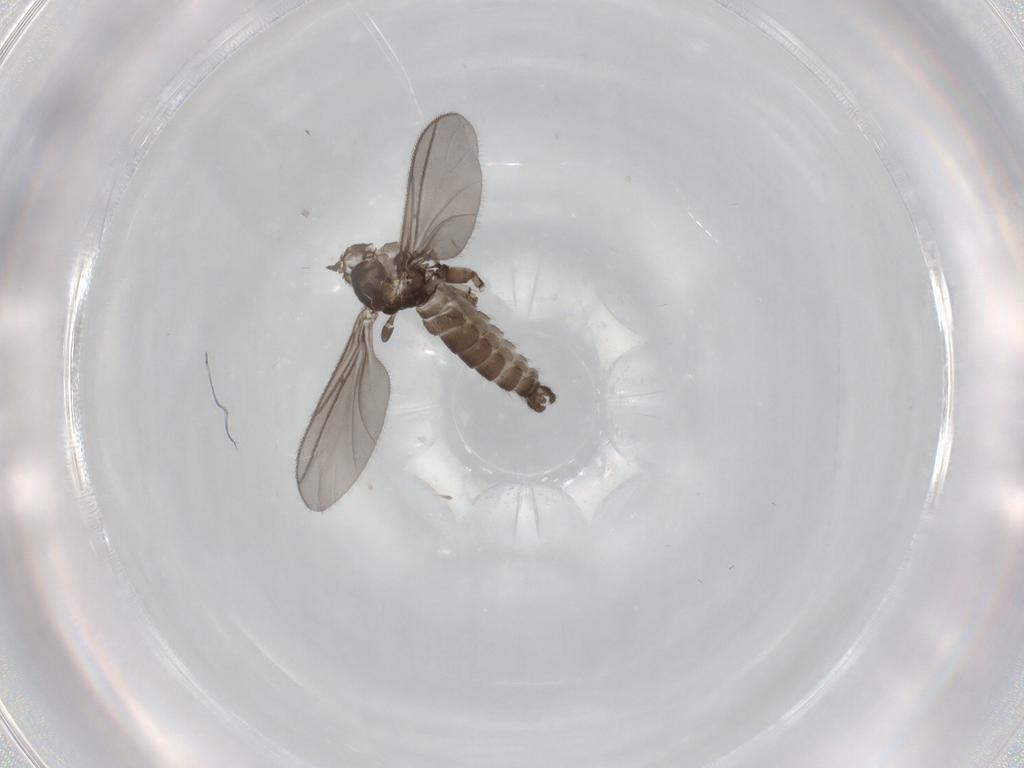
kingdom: Animalia
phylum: Arthropoda
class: Insecta
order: Diptera
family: Sciaridae
